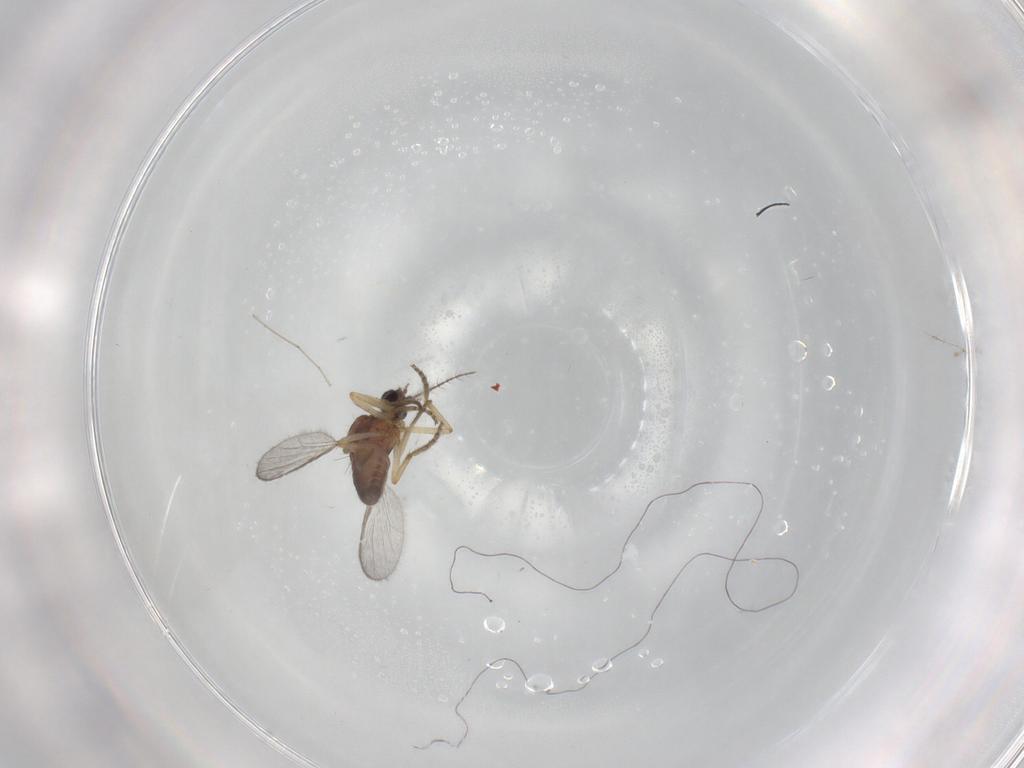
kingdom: Animalia
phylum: Arthropoda
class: Insecta
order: Diptera
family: Ceratopogonidae
